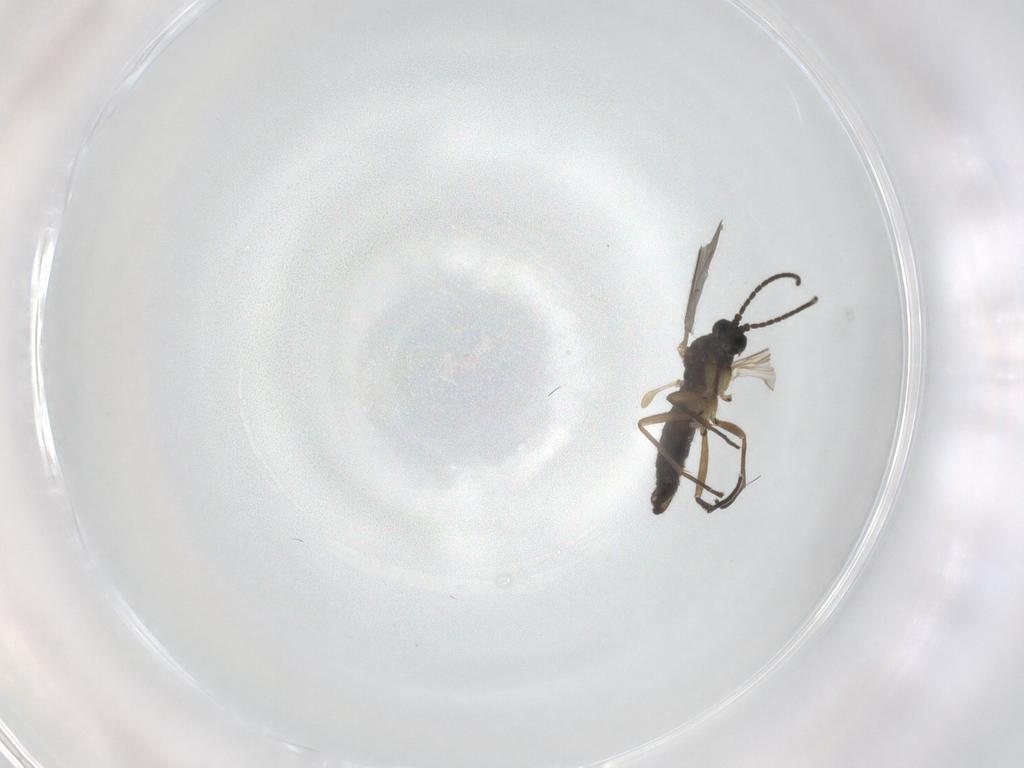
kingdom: Animalia
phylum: Arthropoda
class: Insecta
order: Diptera
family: Sciaridae
